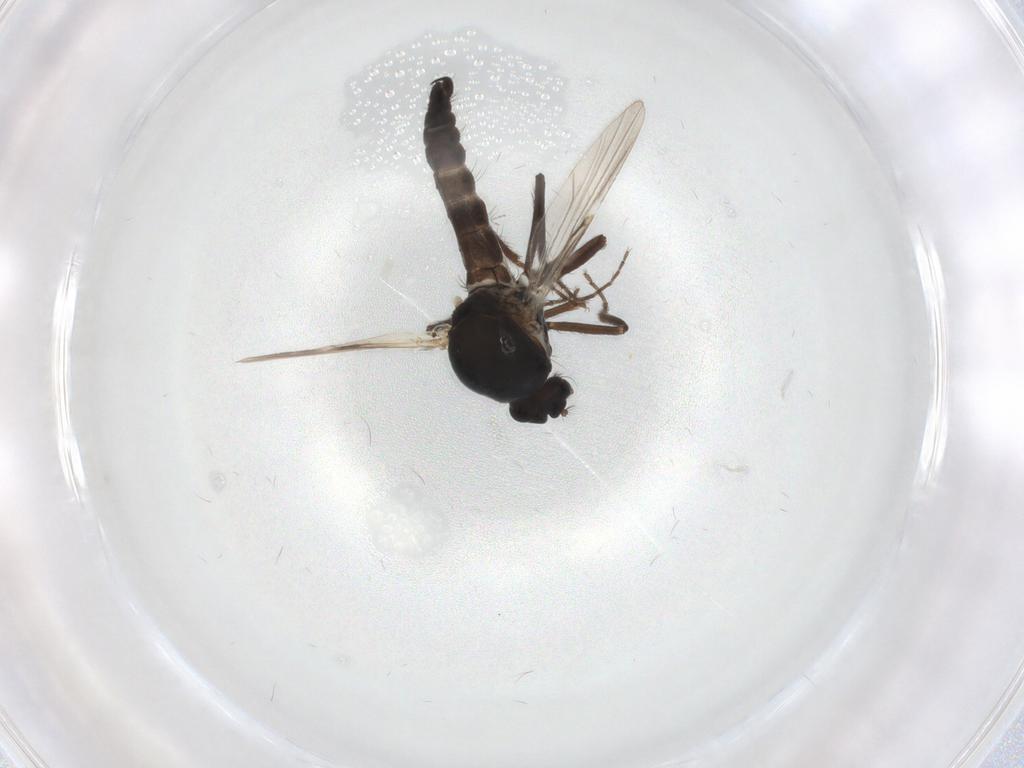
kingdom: Animalia
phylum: Arthropoda
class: Insecta
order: Diptera
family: Ceratopogonidae
